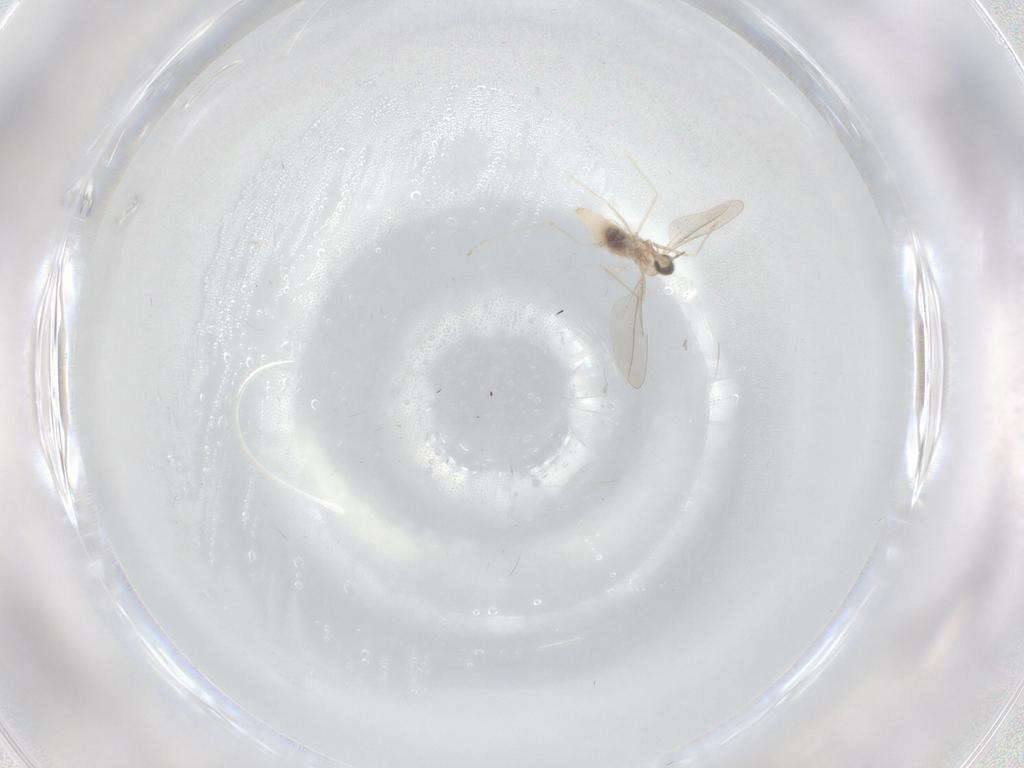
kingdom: Animalia
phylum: Arthropoda
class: Insecta
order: Diptera
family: Cecidomyiidae
